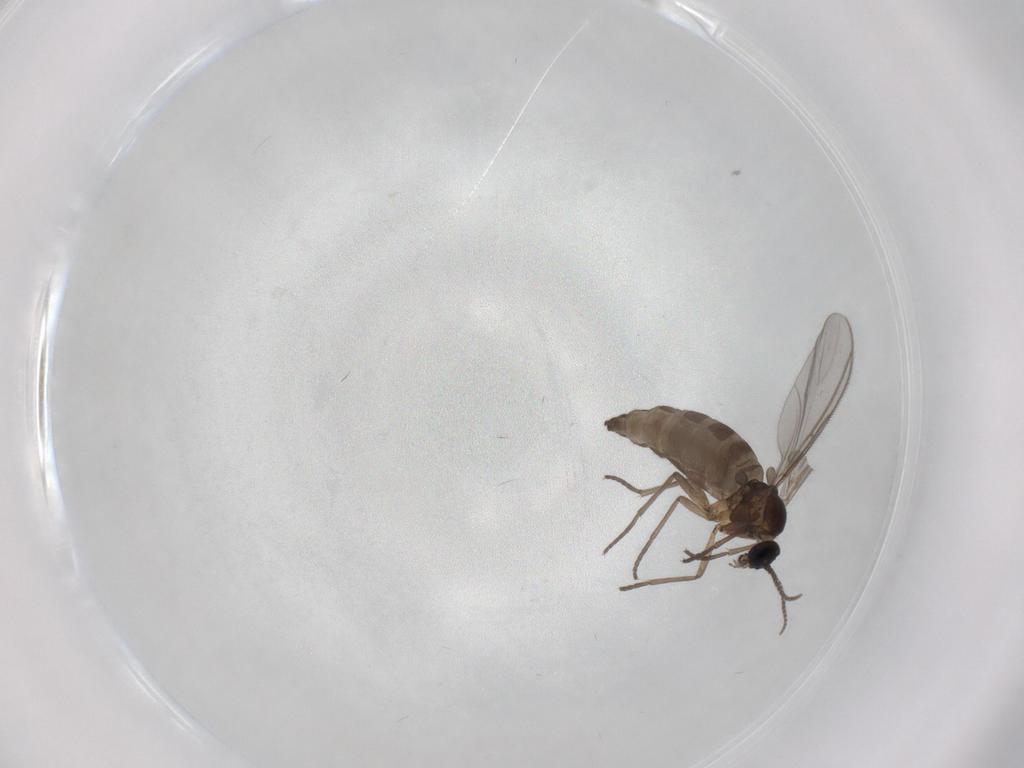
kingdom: Animalia
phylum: Arthropoda
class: Insecta
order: Diptera
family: Sciaridae
